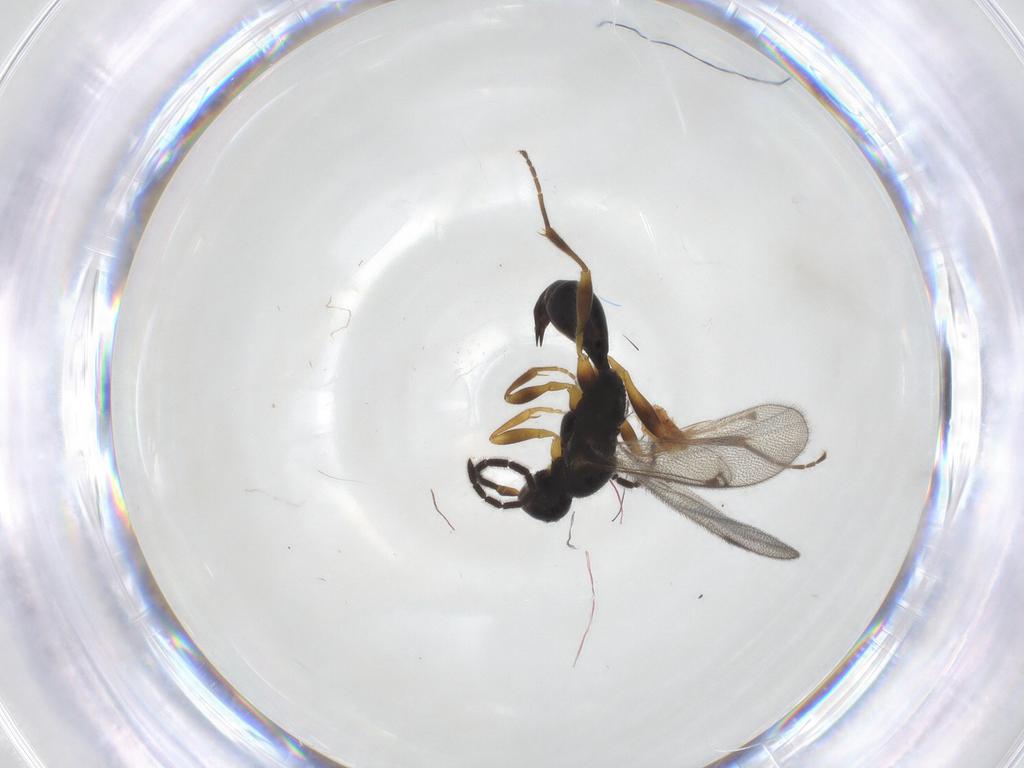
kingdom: Animalia
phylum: Arthropoda
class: Insecta
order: Hymenoptera
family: Proctotrupidae
